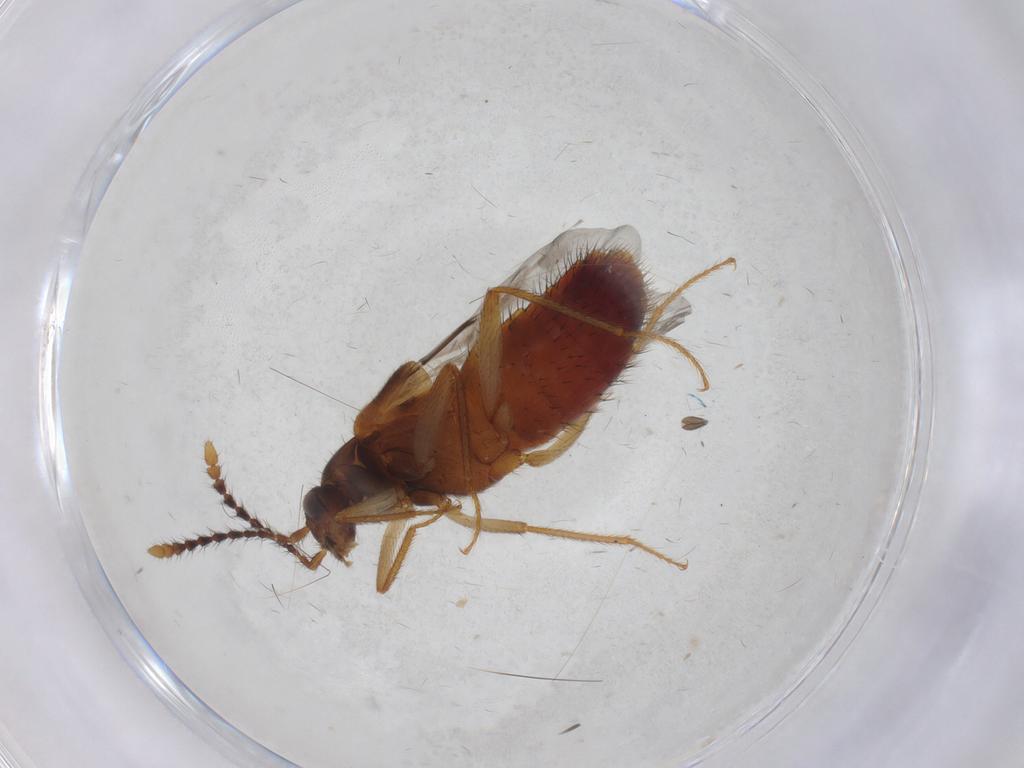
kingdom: Animalia
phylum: Arthropoda
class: Insecta
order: Coleoptera
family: Staphylinidae
